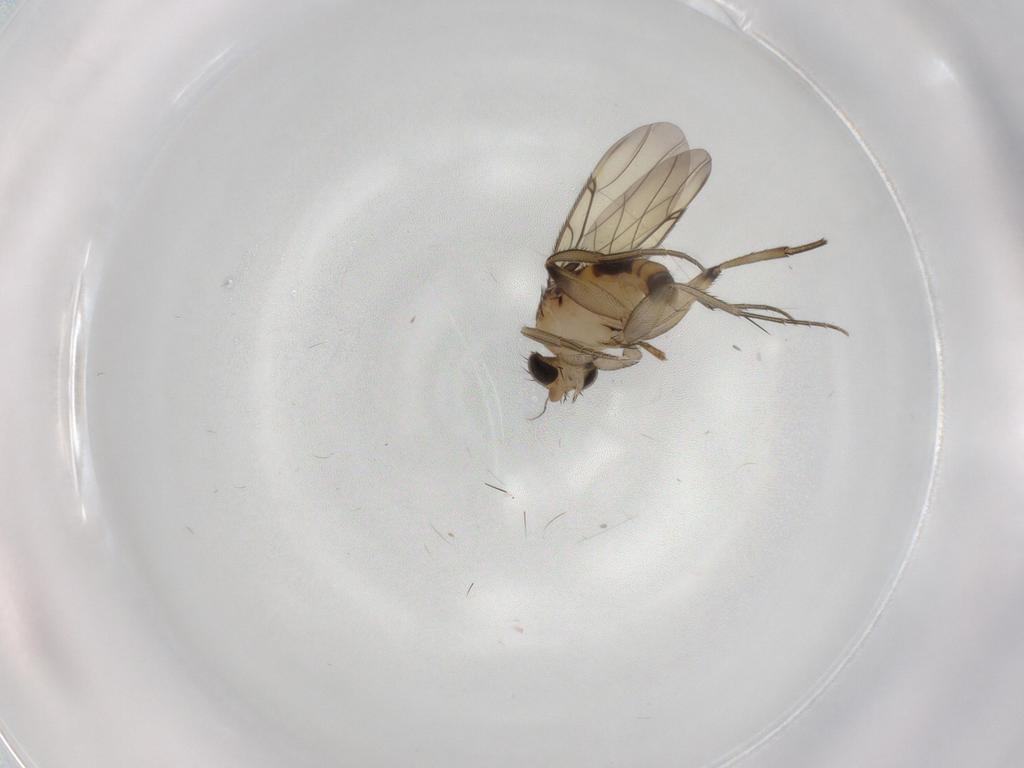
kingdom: Animalia
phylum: Arthropoda
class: Insecta
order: Diptera
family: Phoridae
